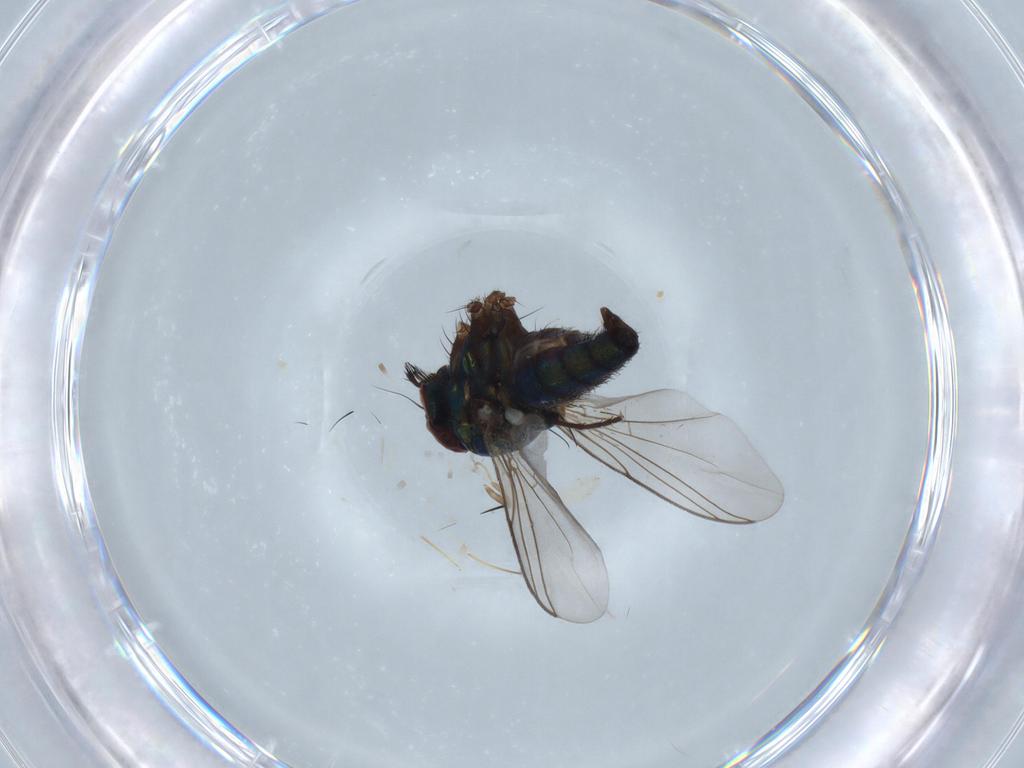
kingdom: Animalia
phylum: Arthropoda
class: Insecta
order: Diptera
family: Dolichopodidae
